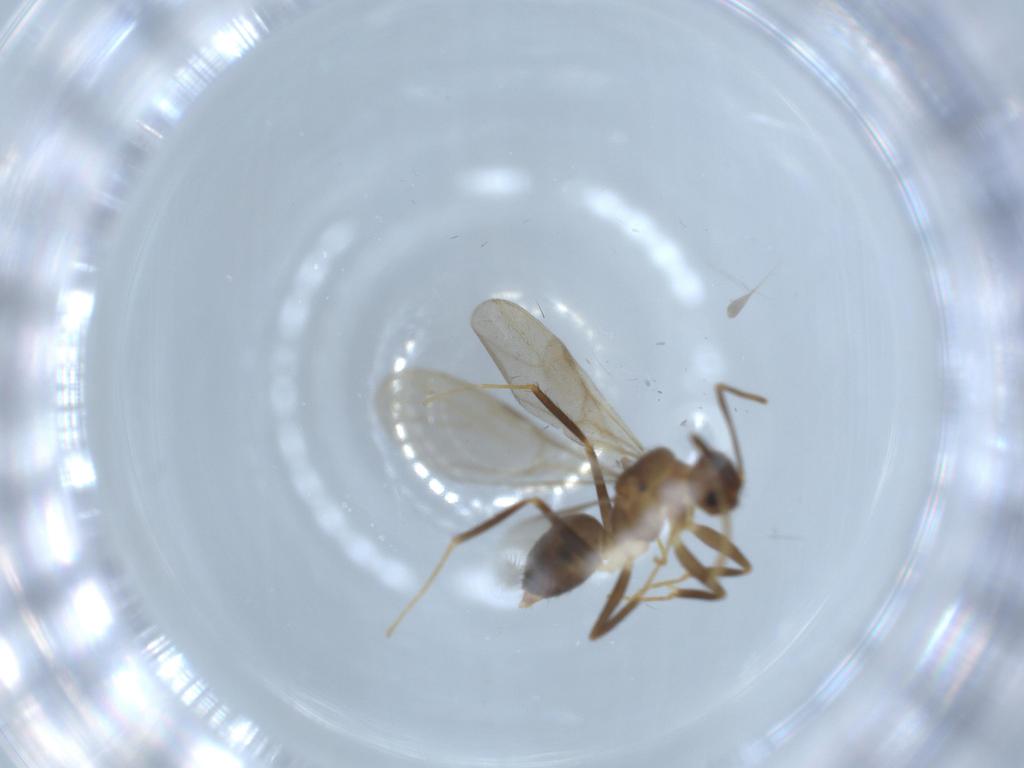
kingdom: Animalia
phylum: Arthropoda
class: Insecta
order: Hymenoptera
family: Formicidae
